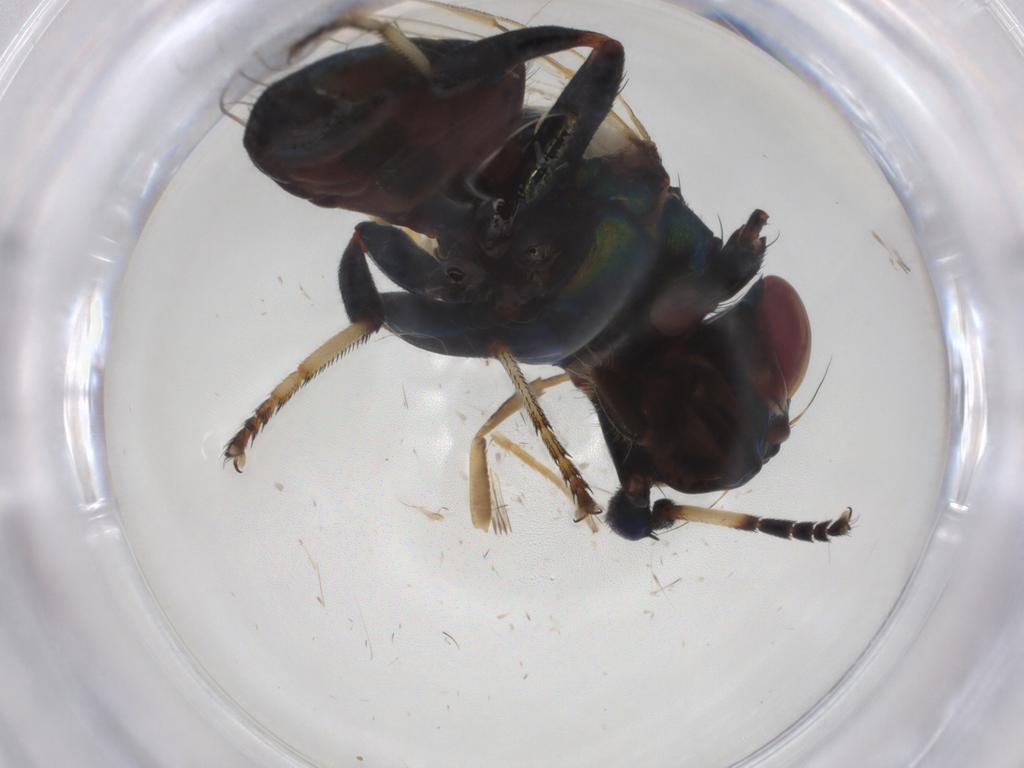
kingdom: Animalia
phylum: Arthropoda
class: Insecta
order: Diptera
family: Ulidiidae
